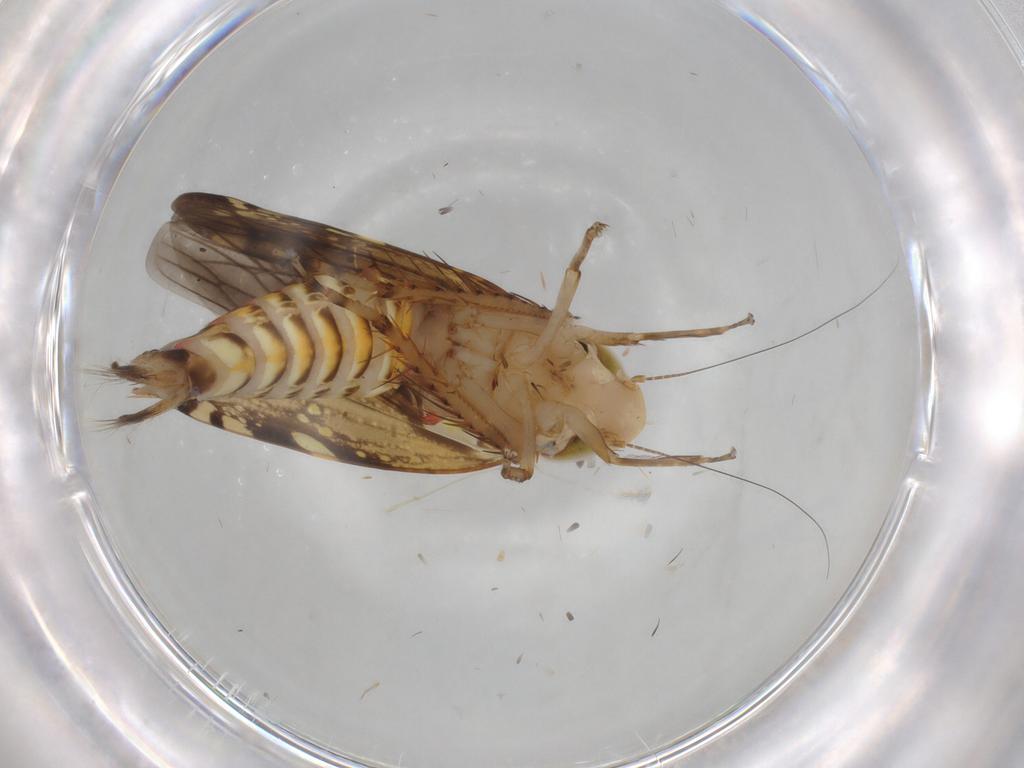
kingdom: Animalia
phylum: Arthropoda
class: Insecta
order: Hemiptera
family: Cicadellidae
